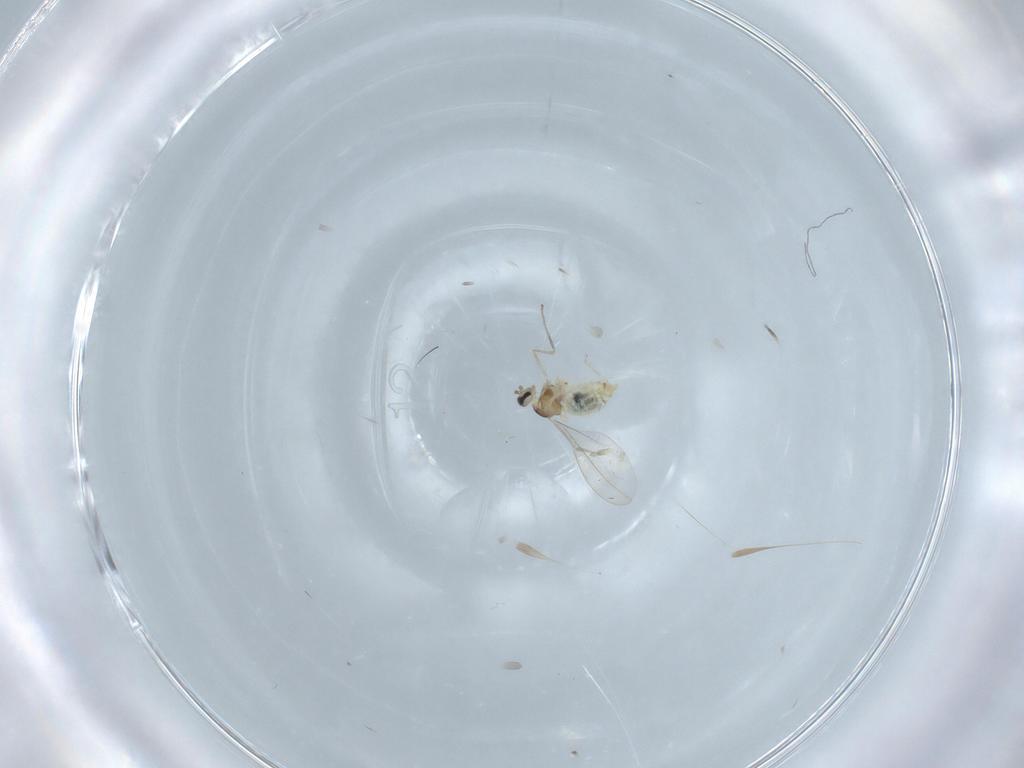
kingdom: Animalia
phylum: Arthropoda
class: Insecta
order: Diptera
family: Cecidomyiidae
